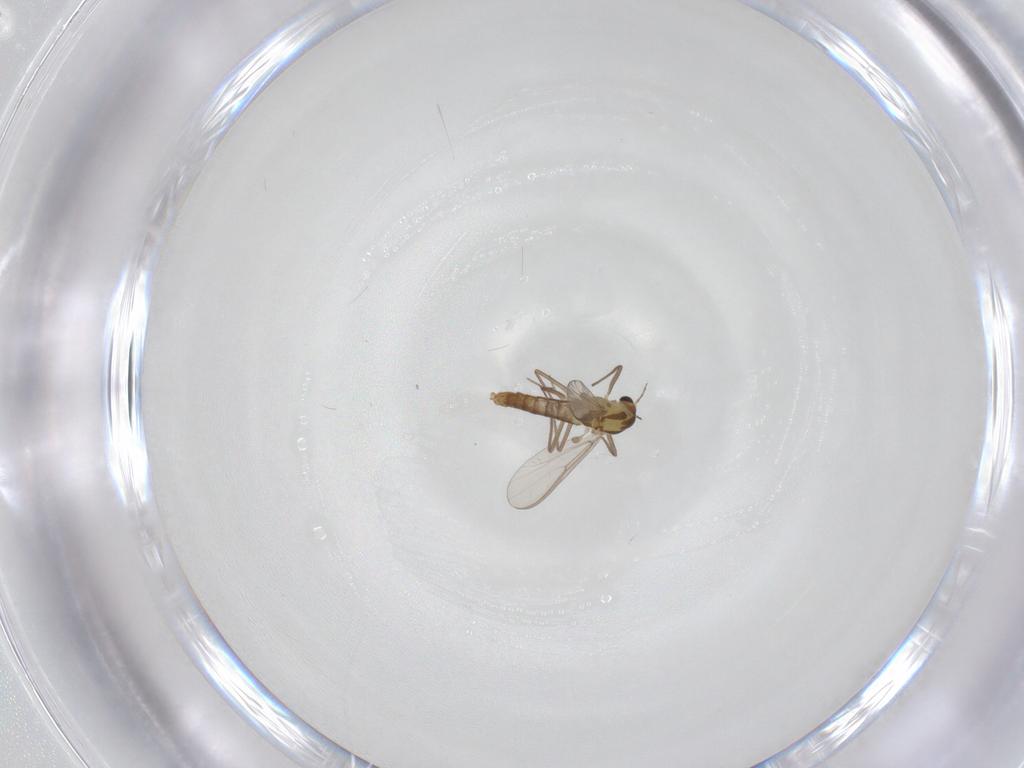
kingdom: Animalia
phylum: Arthropoda
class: Insecta
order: Diptera
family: Chironomidae
